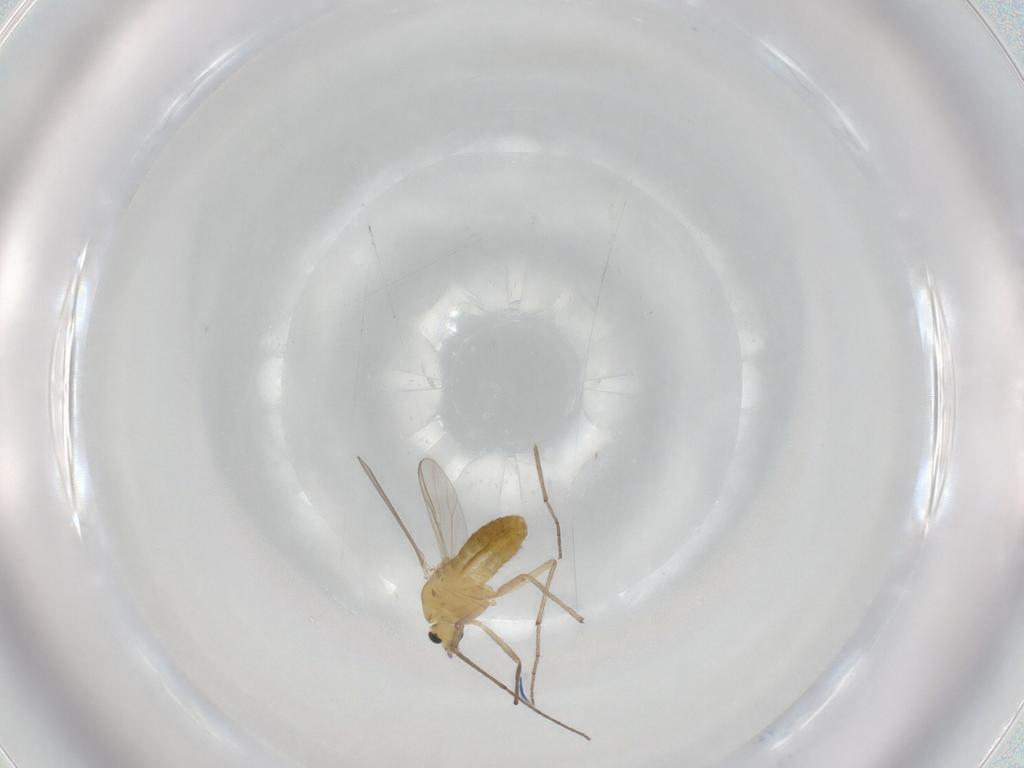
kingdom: Animalia
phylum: Arthropoda
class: Insecta
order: Diptera
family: Chironomidae
